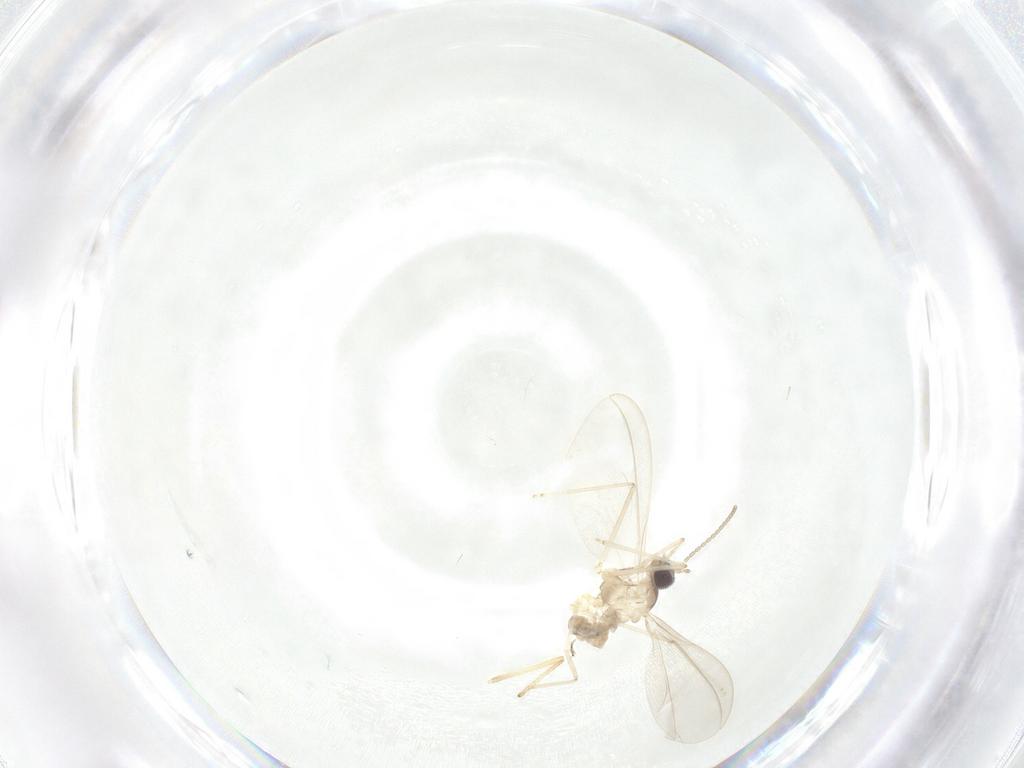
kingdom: Animalia
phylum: Arthropoda
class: Insecta
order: Diptera
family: Cecidomyiidae
